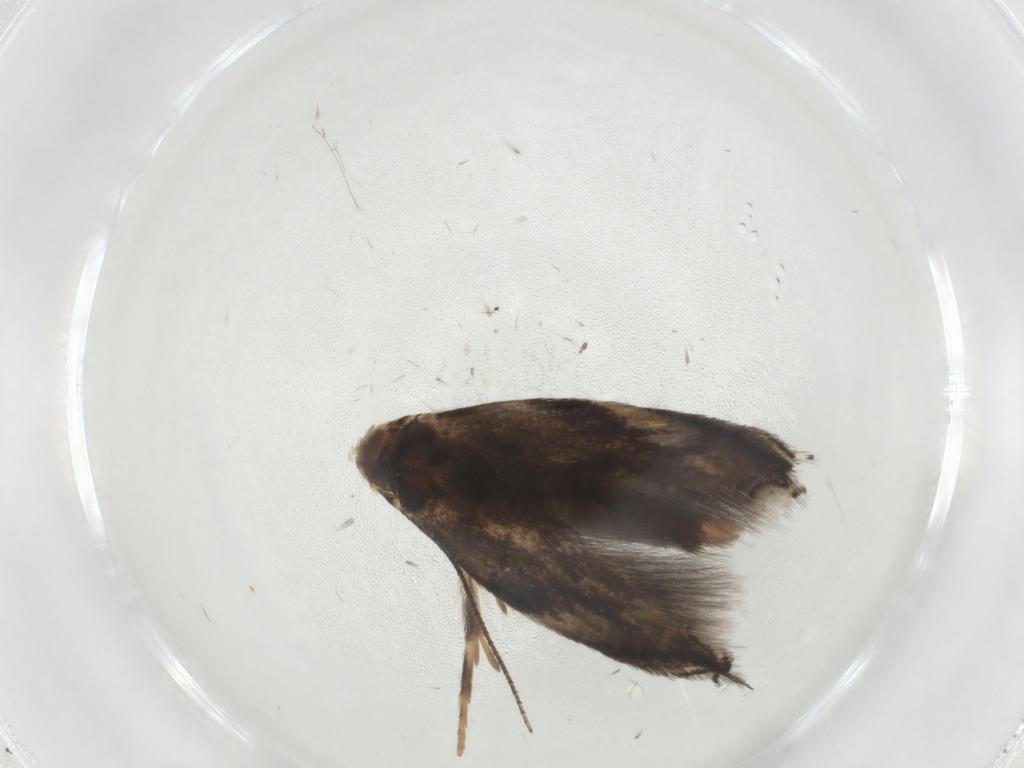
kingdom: Animalia
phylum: Arthropoda
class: Insecta
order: Lepidoptera
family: Elachistidae
